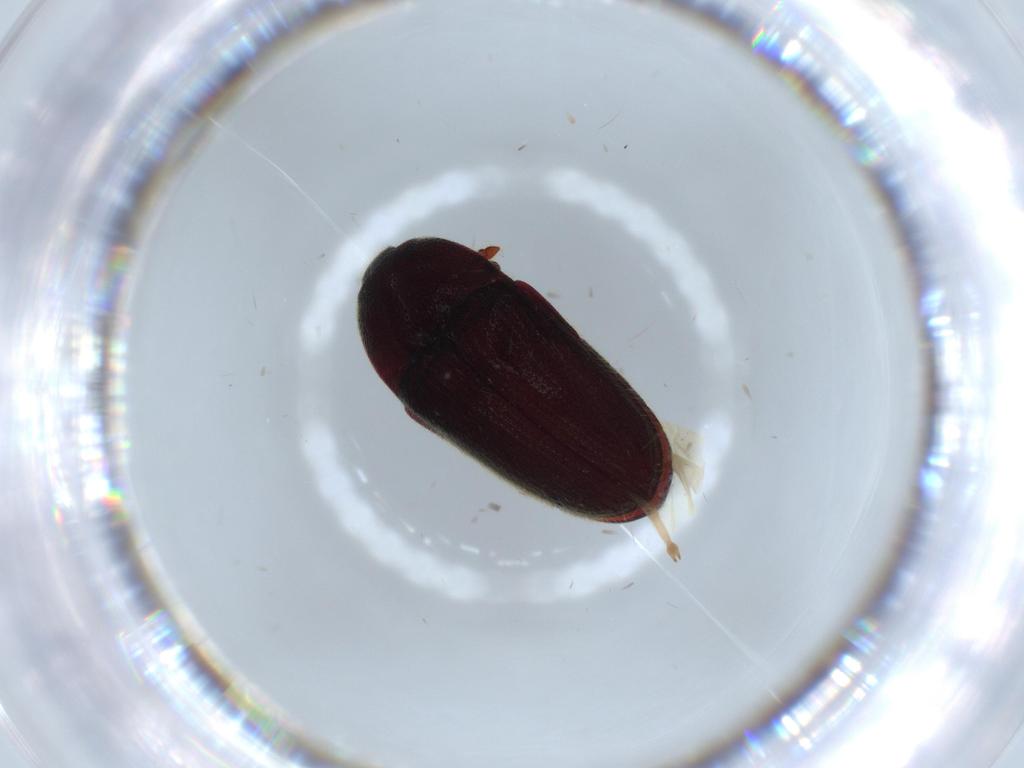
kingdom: Animalia
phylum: Arthropoda
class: Insecta
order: Coleoptera
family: Throscidae
